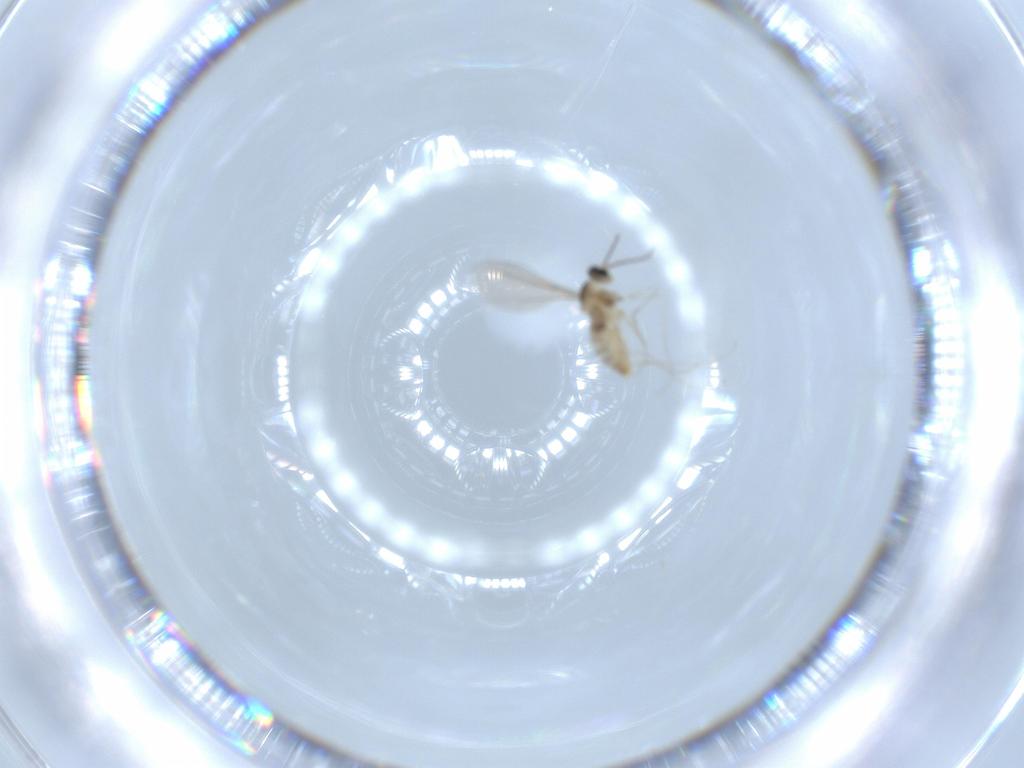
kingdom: Animalia
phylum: Arthropoda
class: Insecta
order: Diptera
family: Cecidomyiidae
